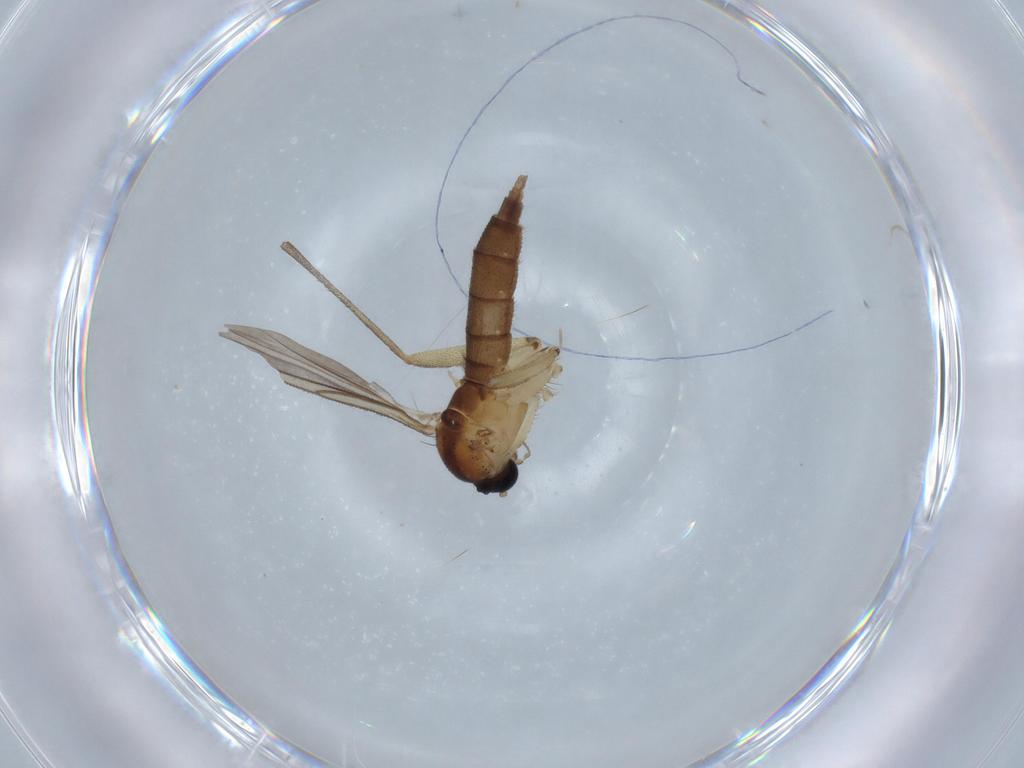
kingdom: Animalia
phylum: Arthropoda
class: Insecta
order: Diptera
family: Sciaridae
